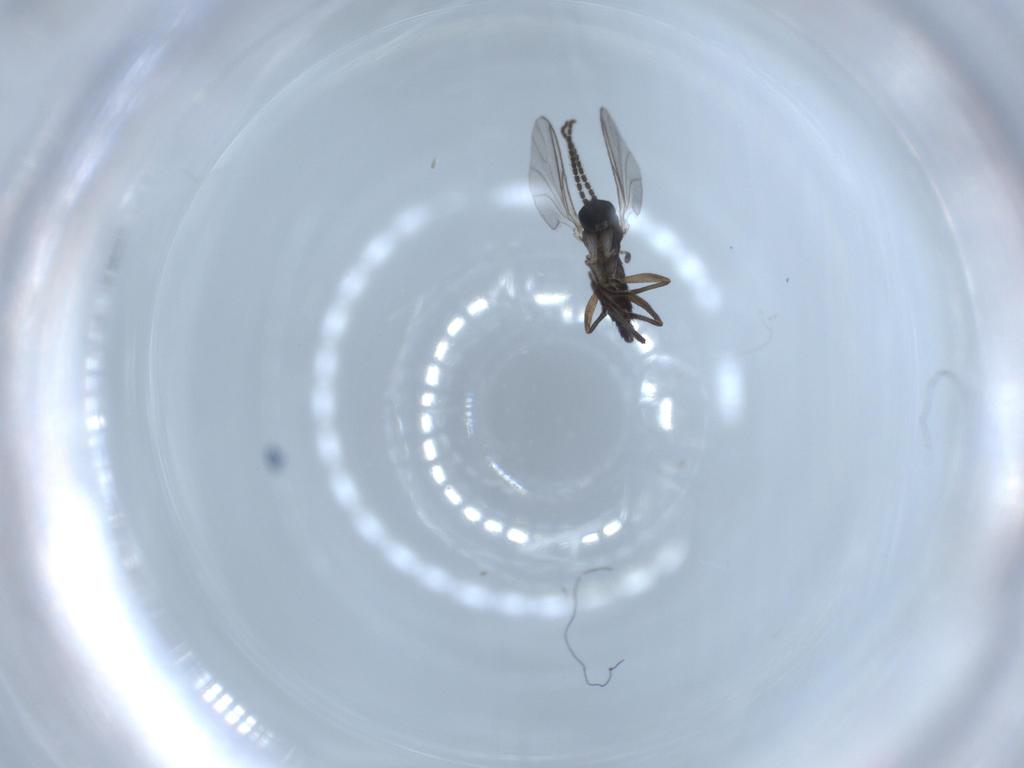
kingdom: Animalia
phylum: Arthropoda
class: Insecta
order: Diptera
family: Sciaridae
